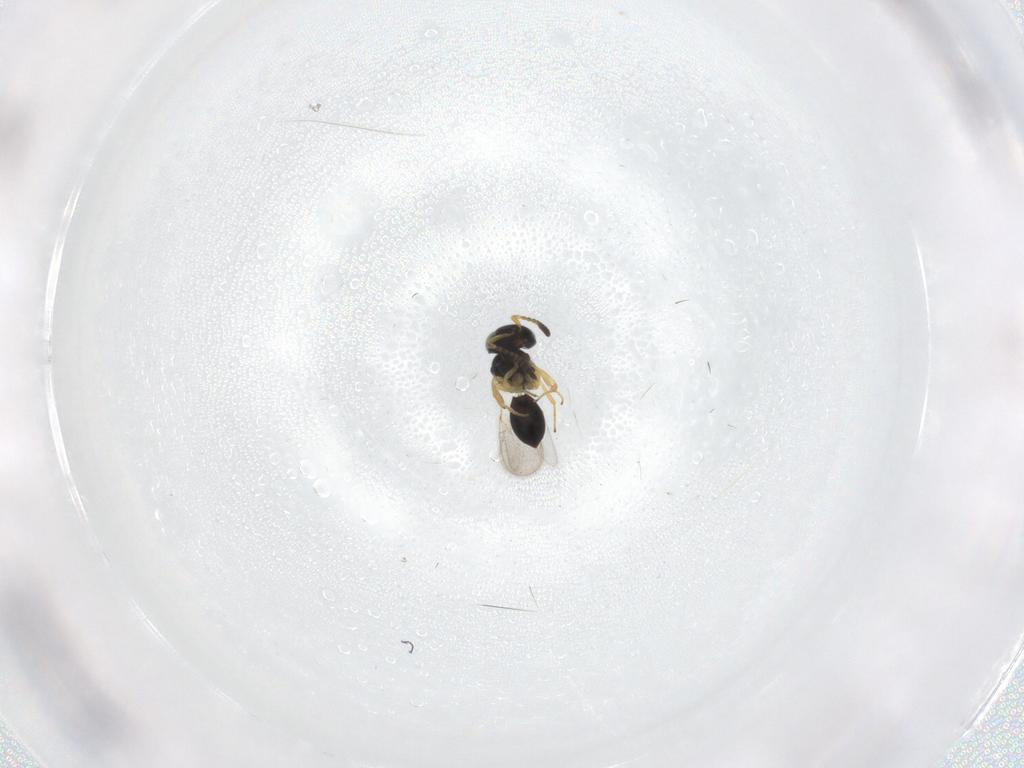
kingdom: Animalia
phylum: Arthropoda
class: Insecta
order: Hymenoptera
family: Scelionidae
